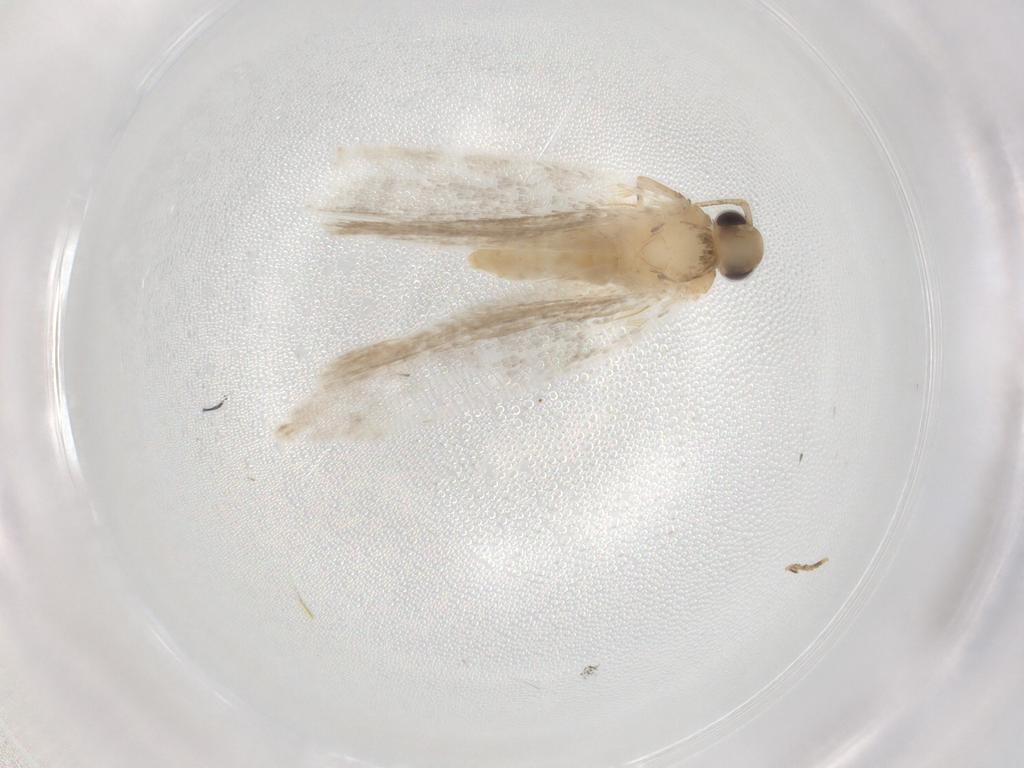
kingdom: Animalia
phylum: Arthropoda
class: Insecta
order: Lepidoptera
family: Autostichidae
